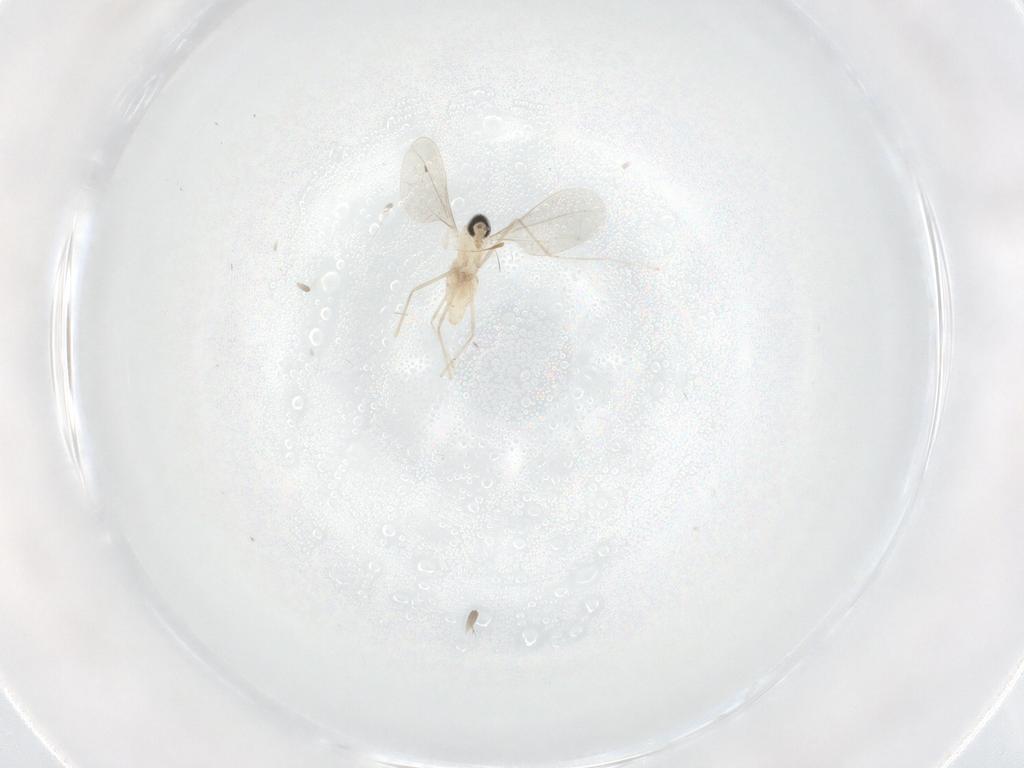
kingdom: Animalia
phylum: Arthropoda
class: Insecta
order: Diptera
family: Cecidomyiidae
